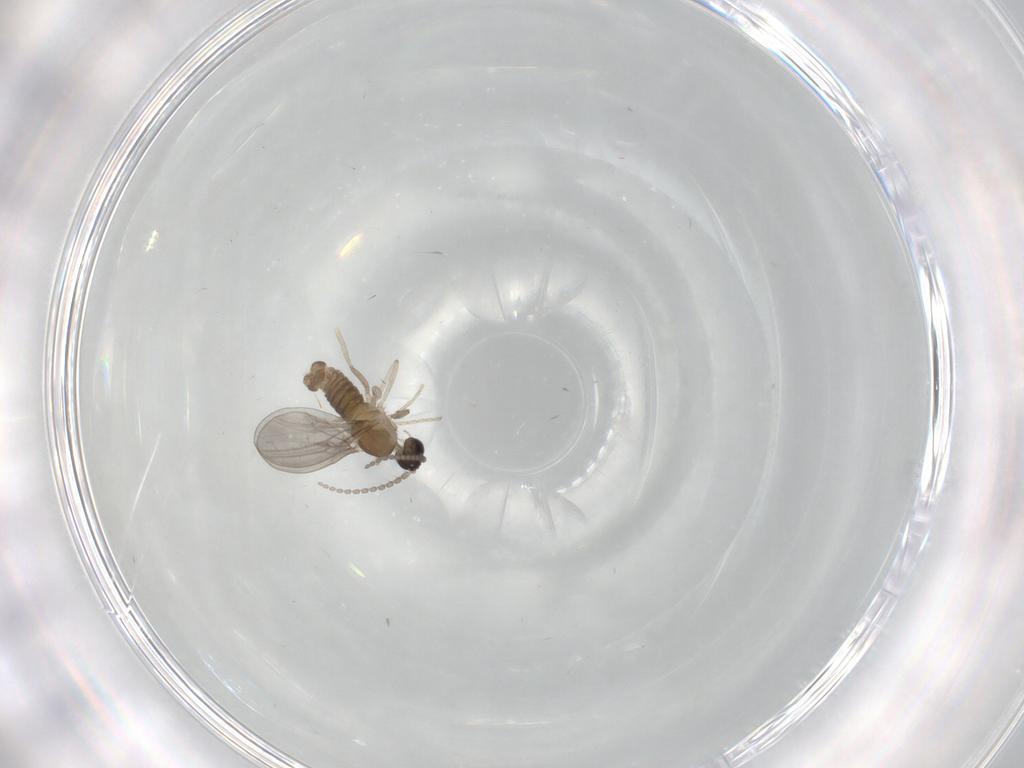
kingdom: Animalia
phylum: Arthropoda
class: Insecta
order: Diptera
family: Cecidomyiidae
